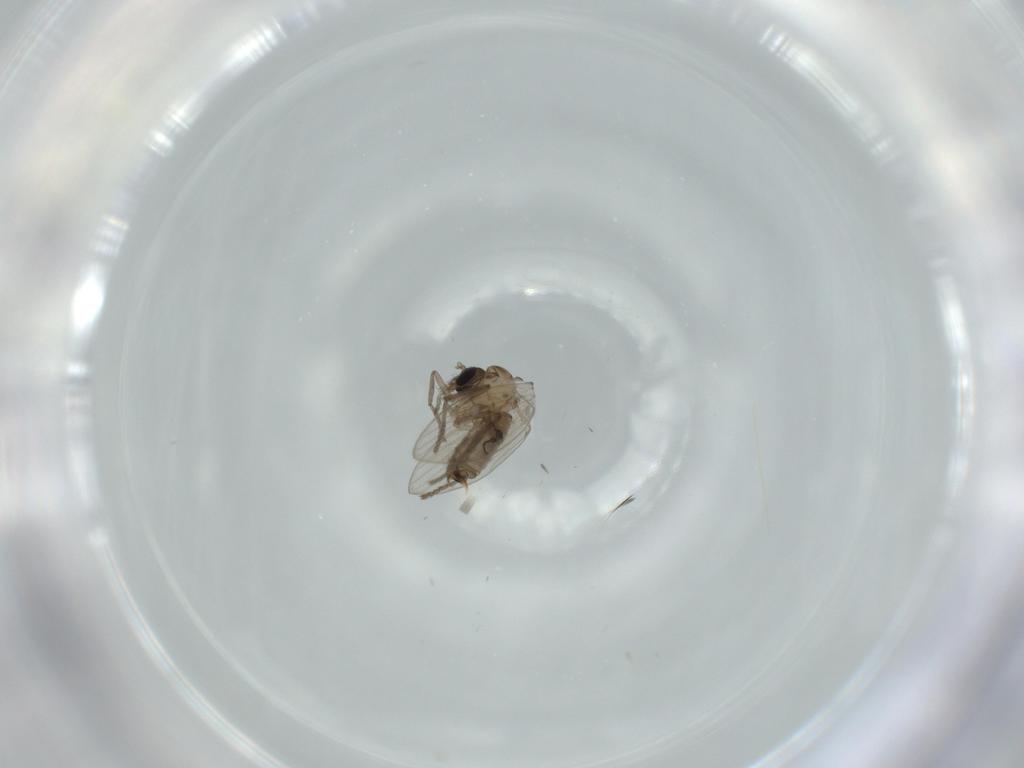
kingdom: Animalia
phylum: Arthropoda
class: Insecta
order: Diptera
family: Psychodidae
